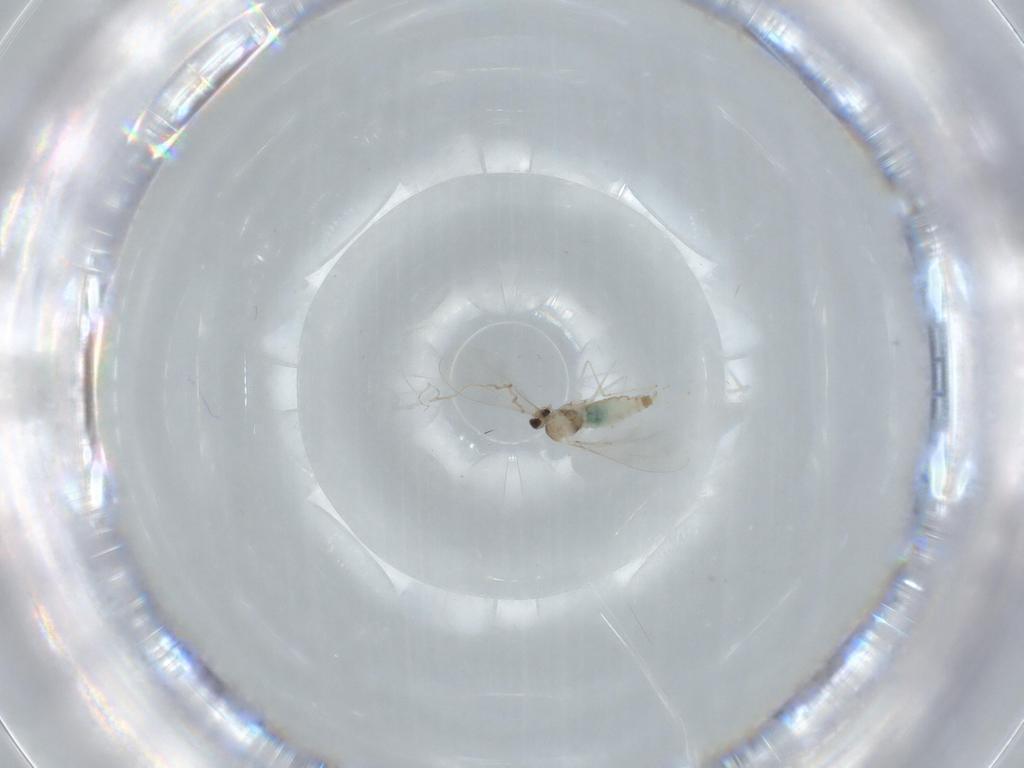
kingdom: Animalia
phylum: Arthropoda
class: Insecta
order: Diptera
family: Cecidomyiidae
